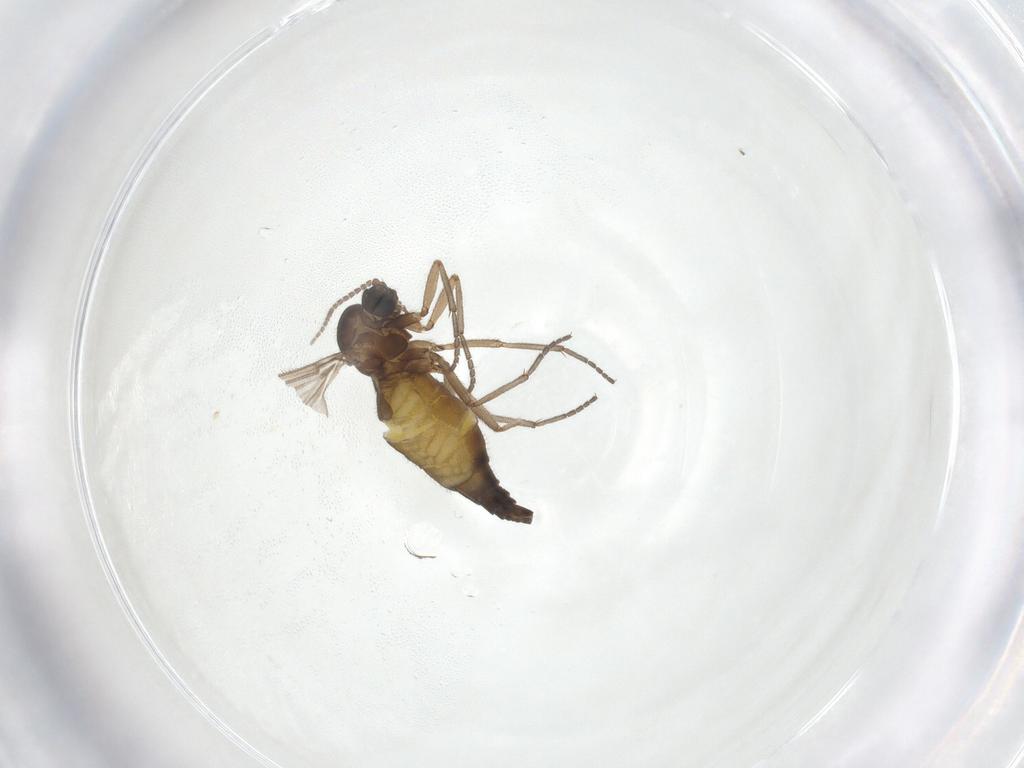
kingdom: Animalia
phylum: Arthropoda
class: Insecta
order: Diptera
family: Sciaridae
